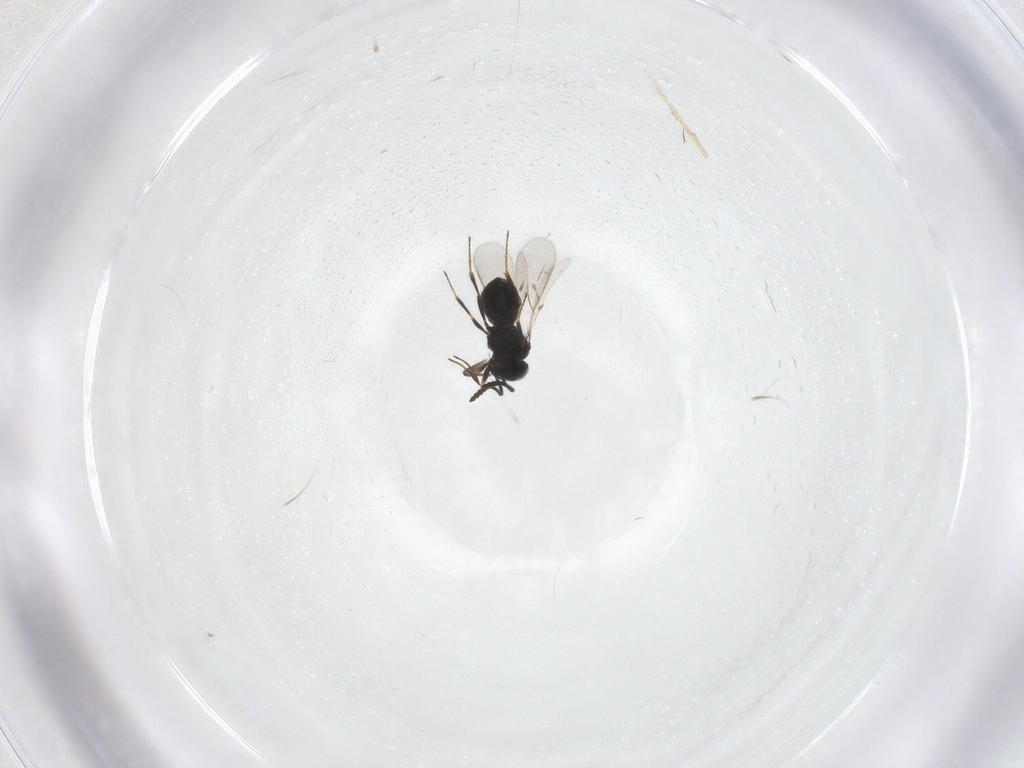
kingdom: Animalia
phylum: Arthropoda
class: Insecta
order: Hymenoptera
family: Scelionidae
